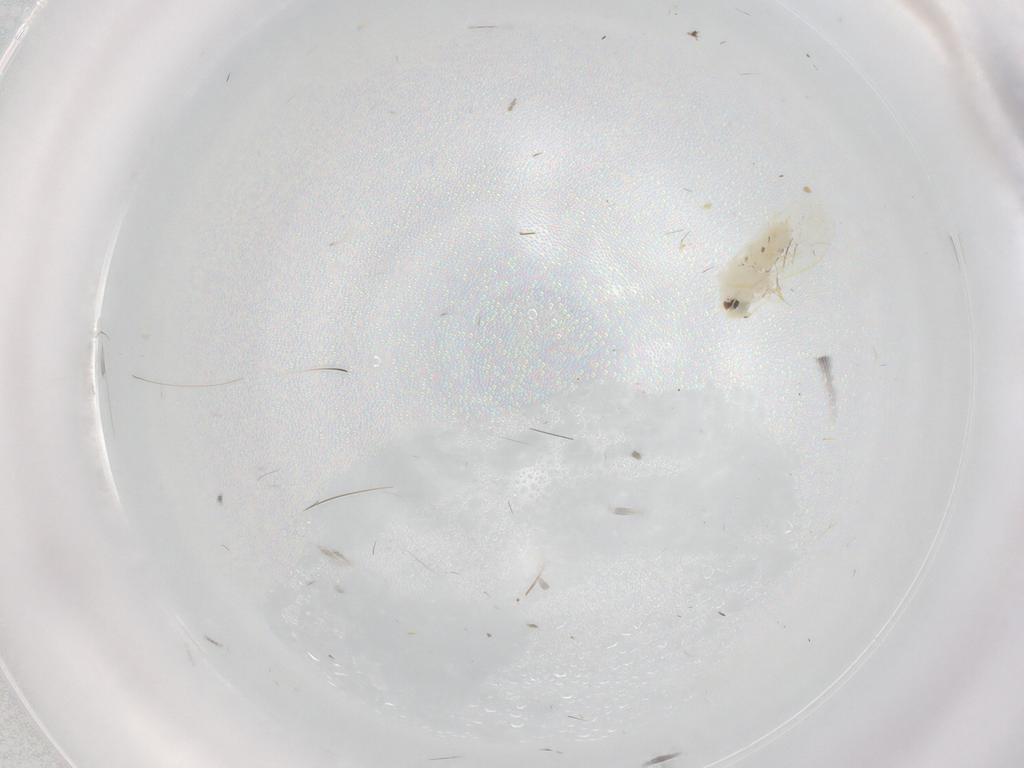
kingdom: Animalia
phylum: Arthropoda
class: Insecta
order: Hemiptera
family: Aleyrodidae
